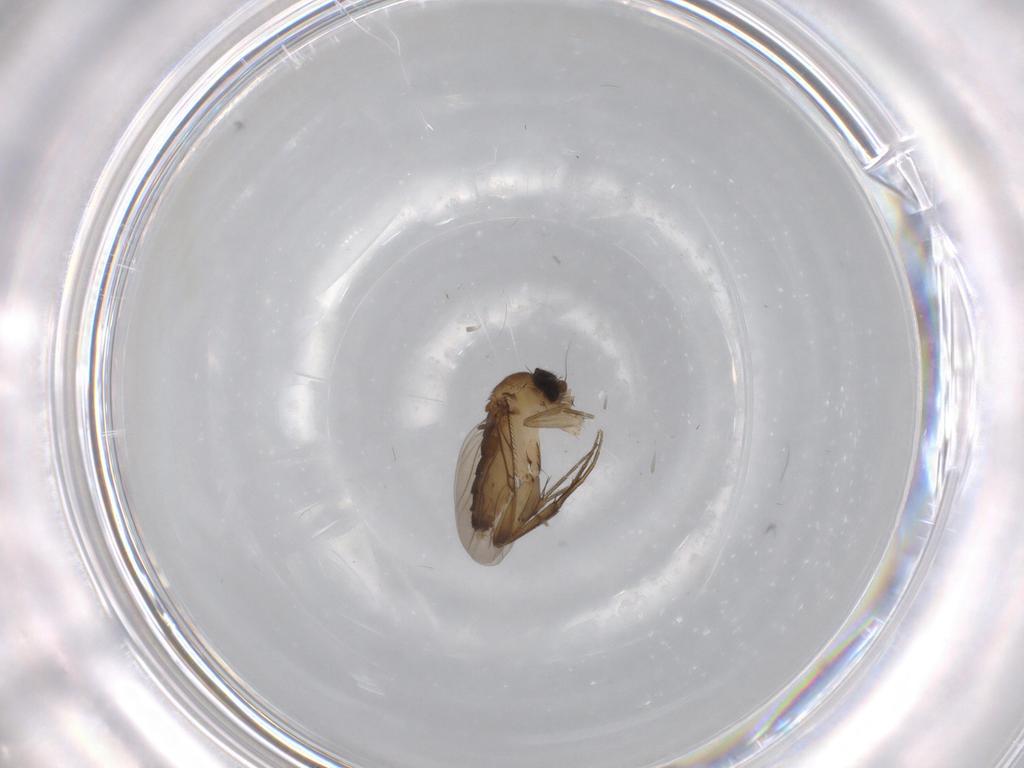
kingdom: Animalia
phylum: Arthropoda
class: Insecta
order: Diptera
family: Phoridae
